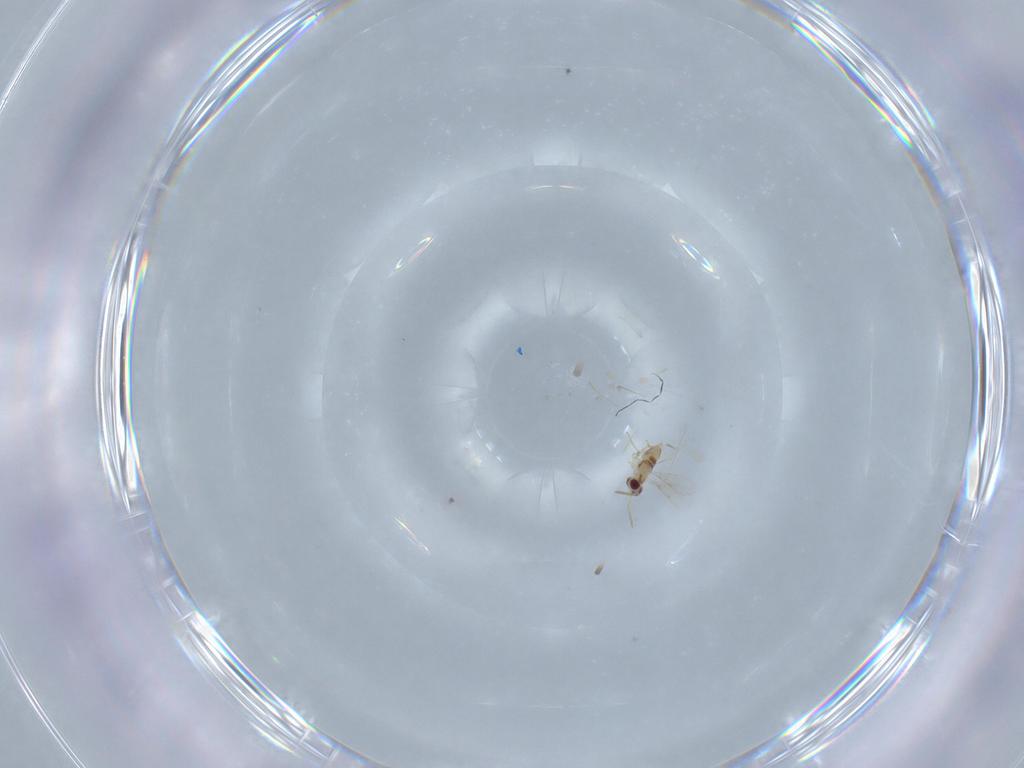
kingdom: Animalia
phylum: Arthropoda
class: Insecta
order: Hymenoptera
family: Aphelinidae
